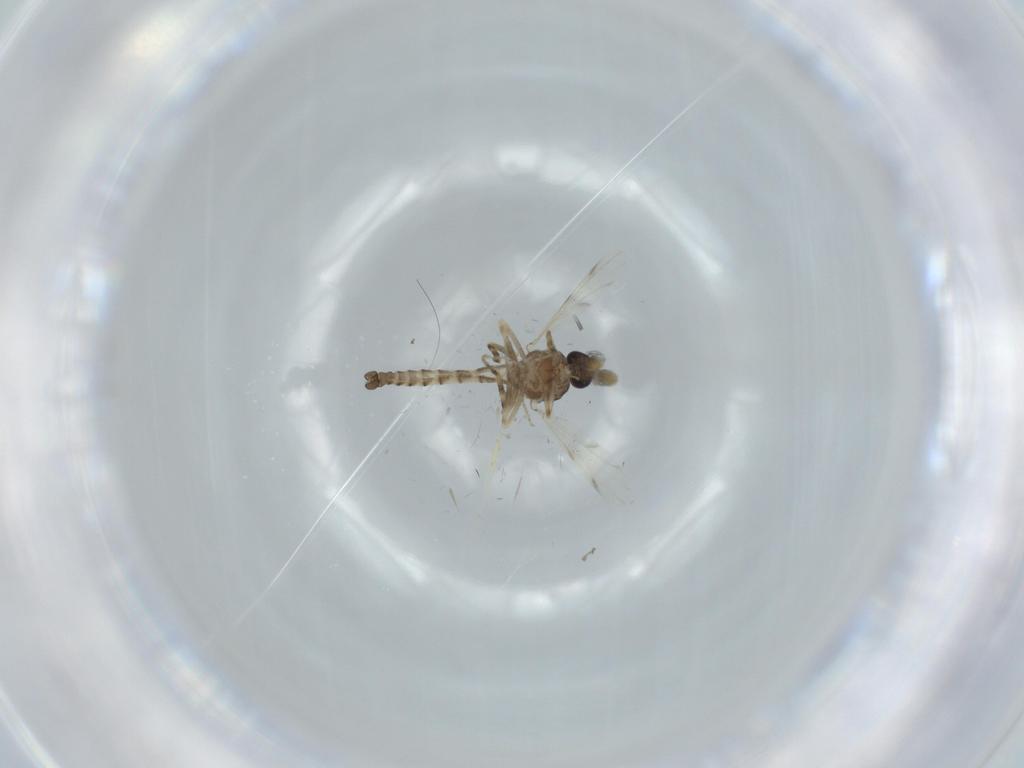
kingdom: Animalia
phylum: Arthropoda
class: Insecta
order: Diptera
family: Ceratopogonidae
